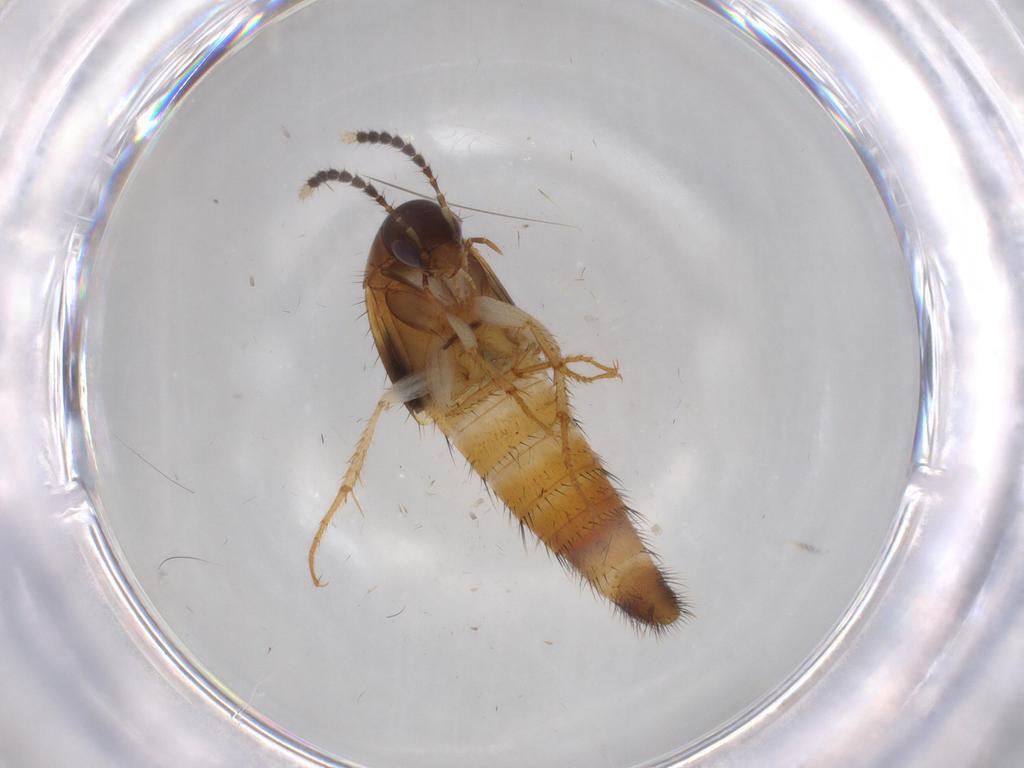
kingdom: Animalia
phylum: Arthropoda
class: Insecta
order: Coleoptera
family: Staphylinidae
